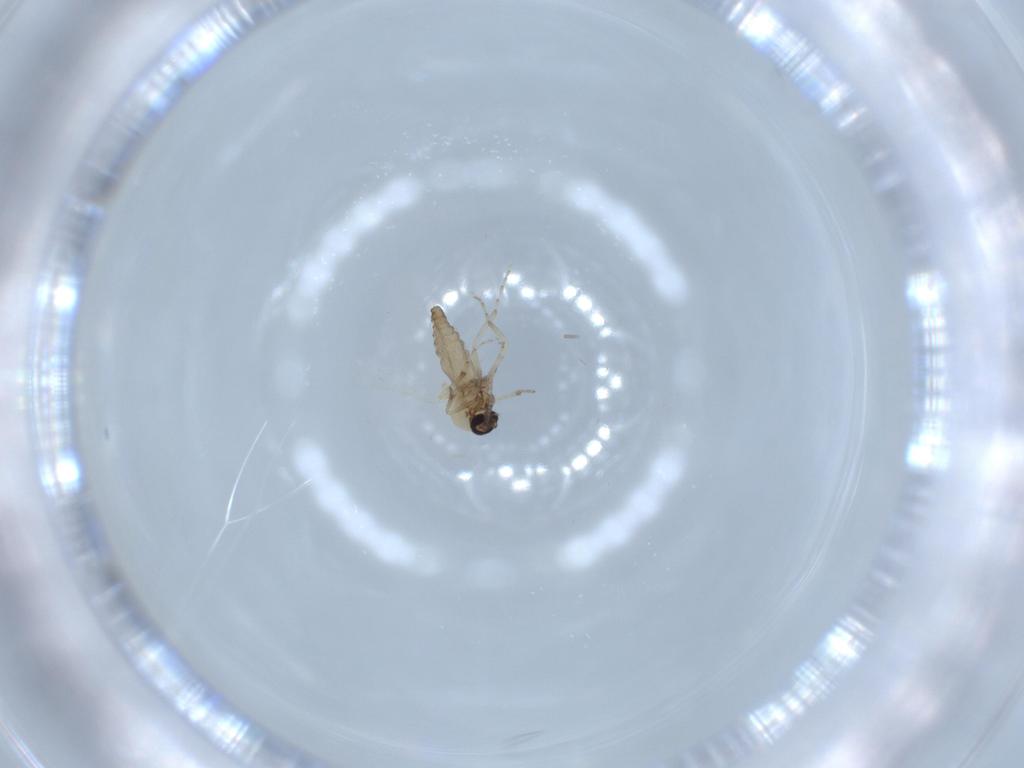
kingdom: Animalia
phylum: Arthropoda
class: Insecta
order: Diptera
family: Ceratopogonidae
